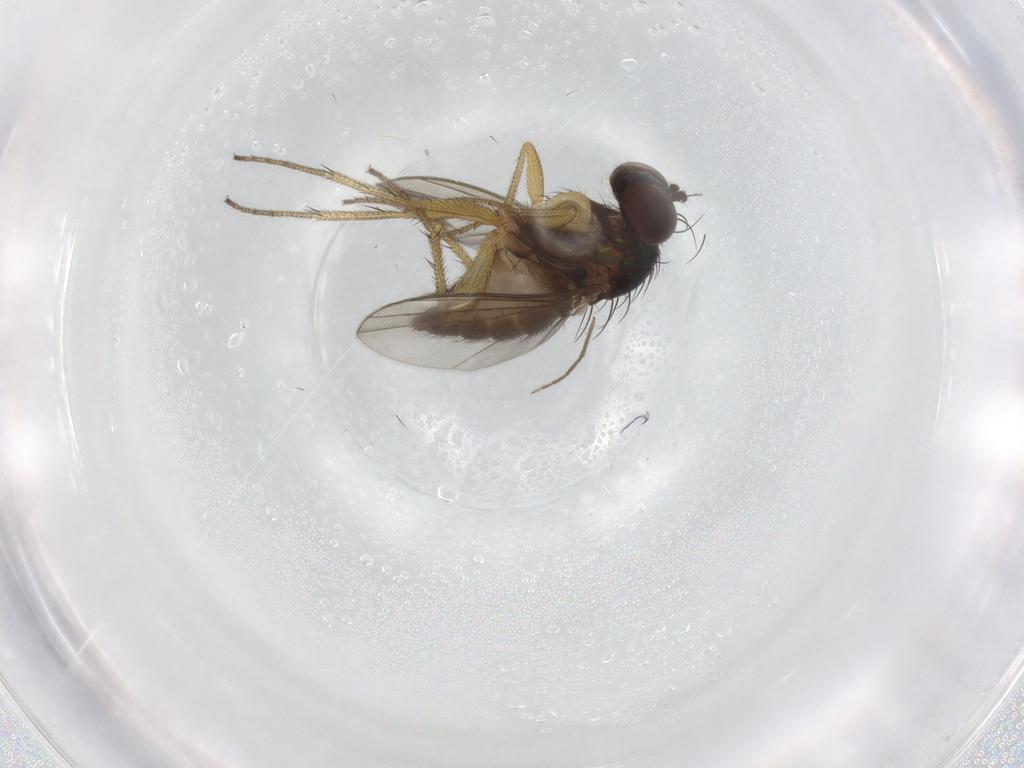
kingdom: Animalia
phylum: Arthropoda
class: Insecta
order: Diptera
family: Chironomidae
